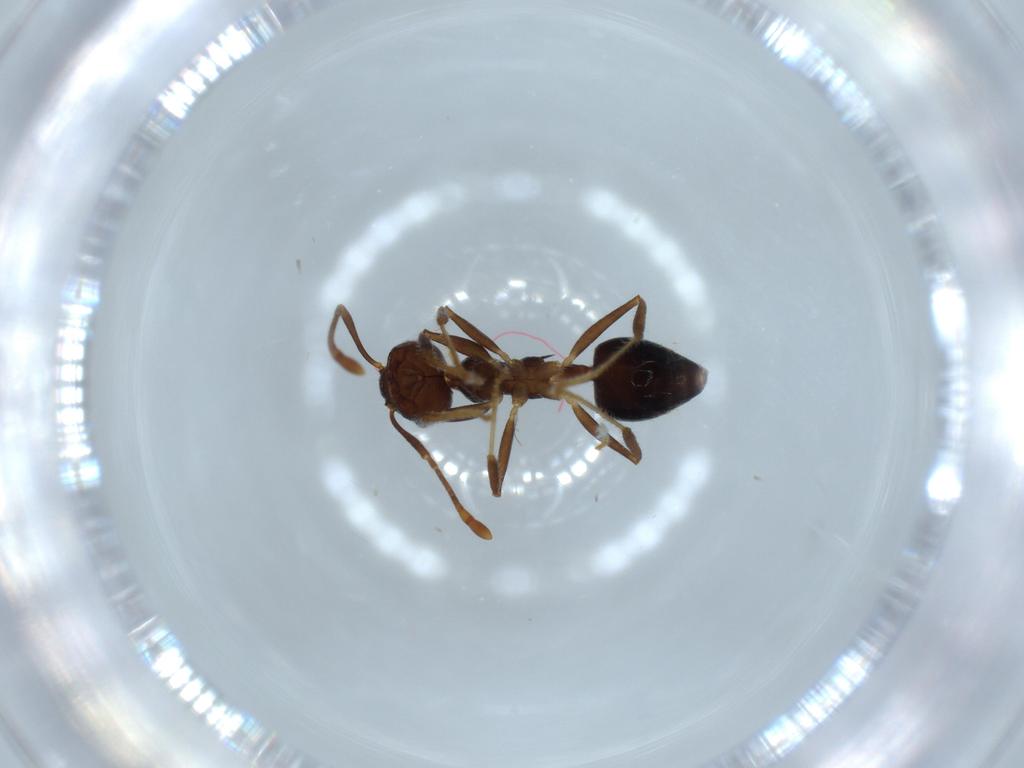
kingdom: Animalia
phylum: Arthropoda
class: Insecta
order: Hymenoptera
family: Formicidae
